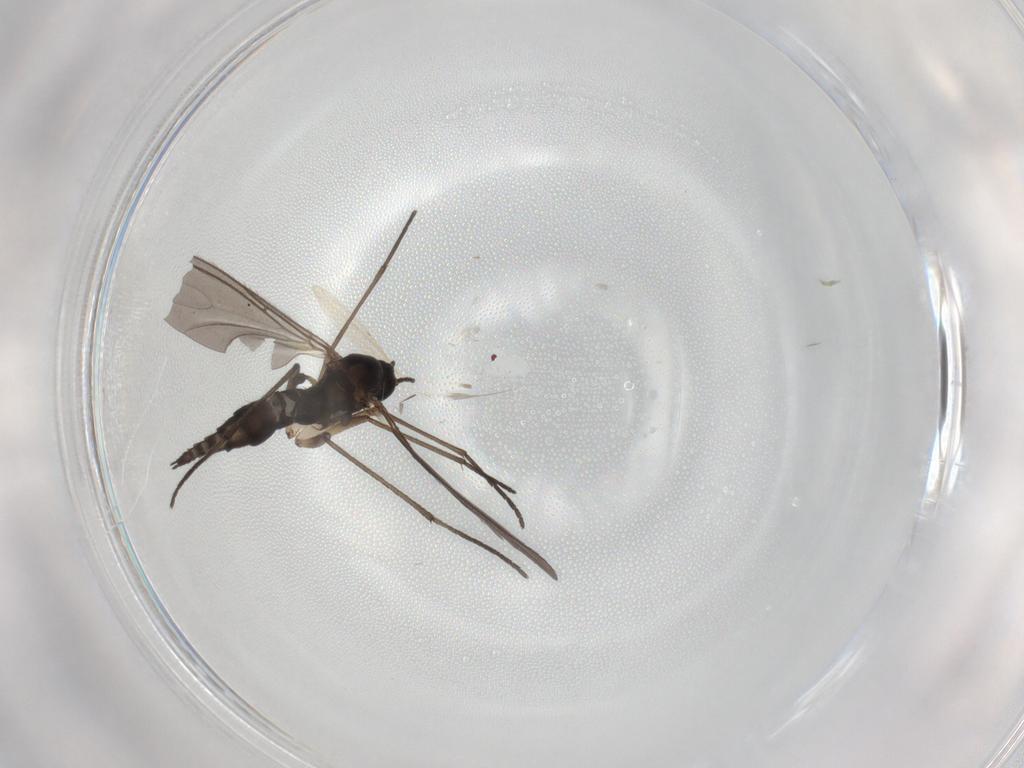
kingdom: Animalia
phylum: Arthropoda
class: Insecta
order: Diptera
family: Sciaridae
